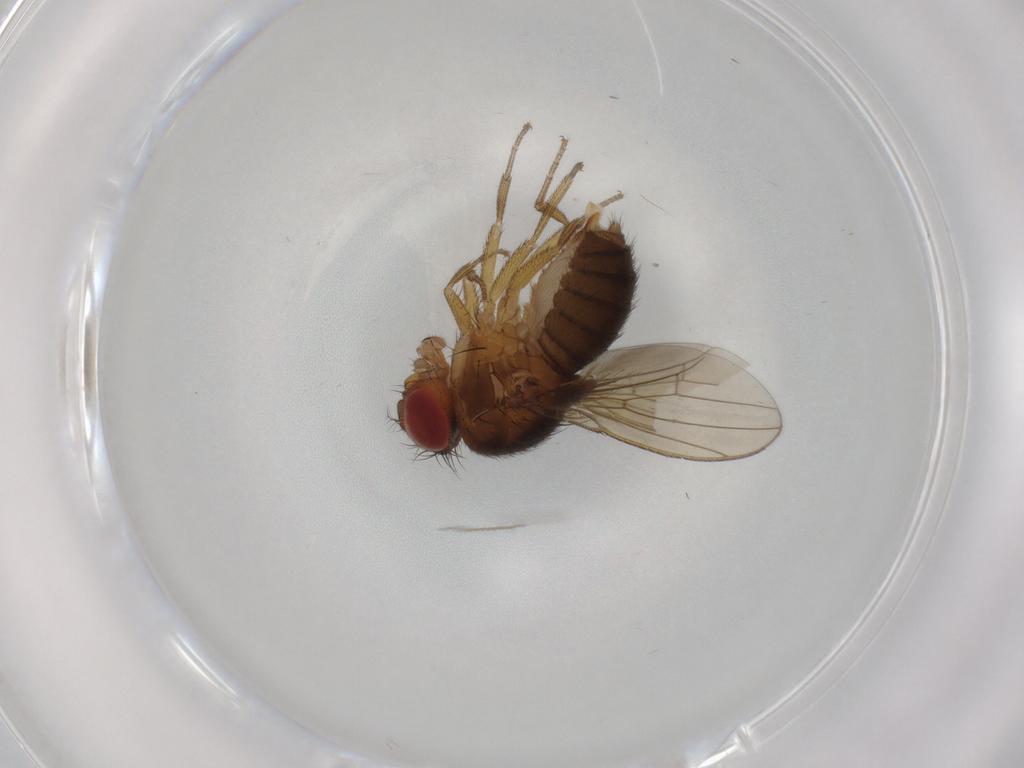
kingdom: Animalia
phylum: Arthropoda
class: Insecta
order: Diptera
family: Drosophilidae
